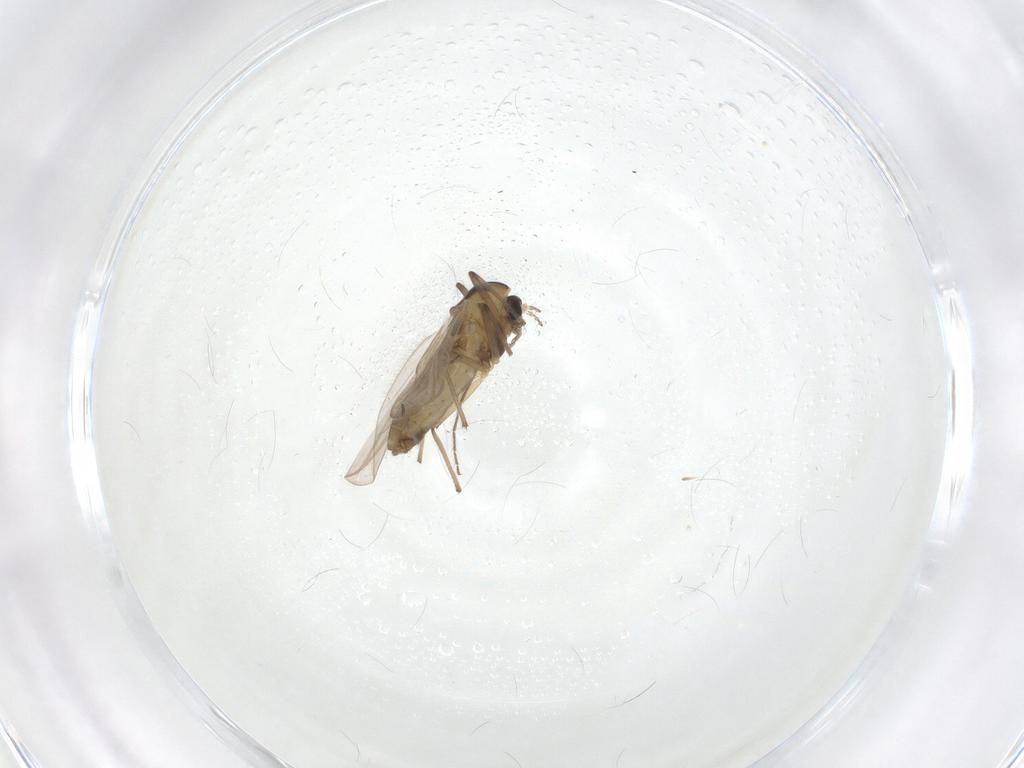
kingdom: Animalia
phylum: Arthropoda
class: Insecta
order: Diptera
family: Chironomidae
